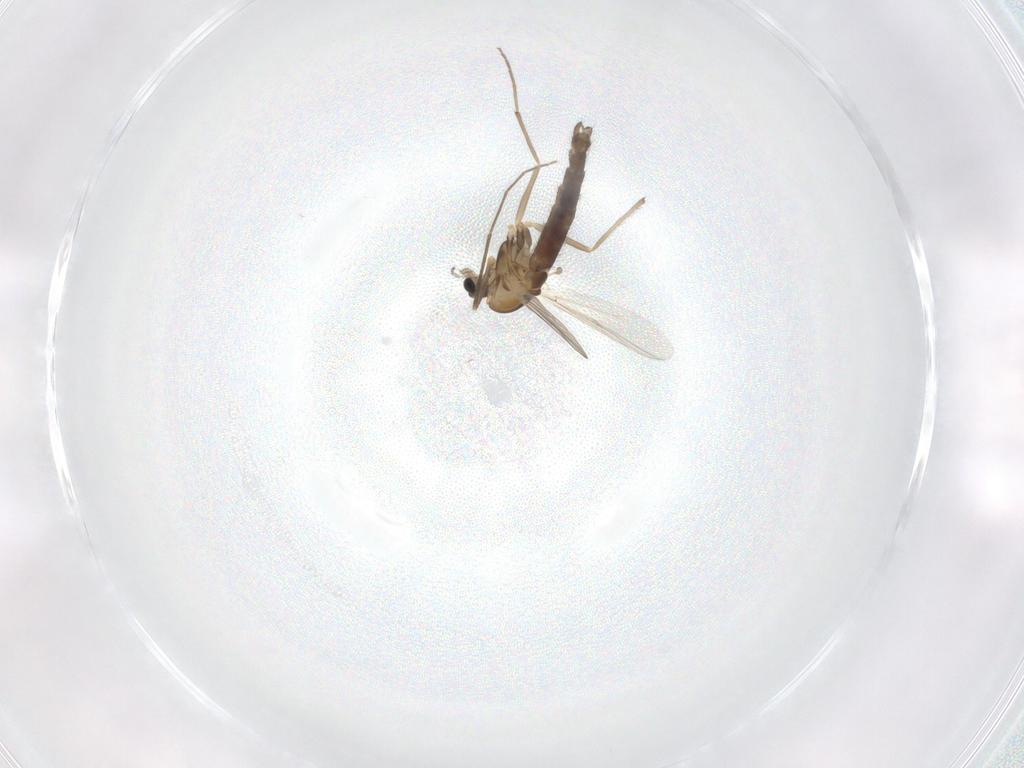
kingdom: Animalia
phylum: Arthropoda
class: Insecta
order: Diptera
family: Chironomidae
